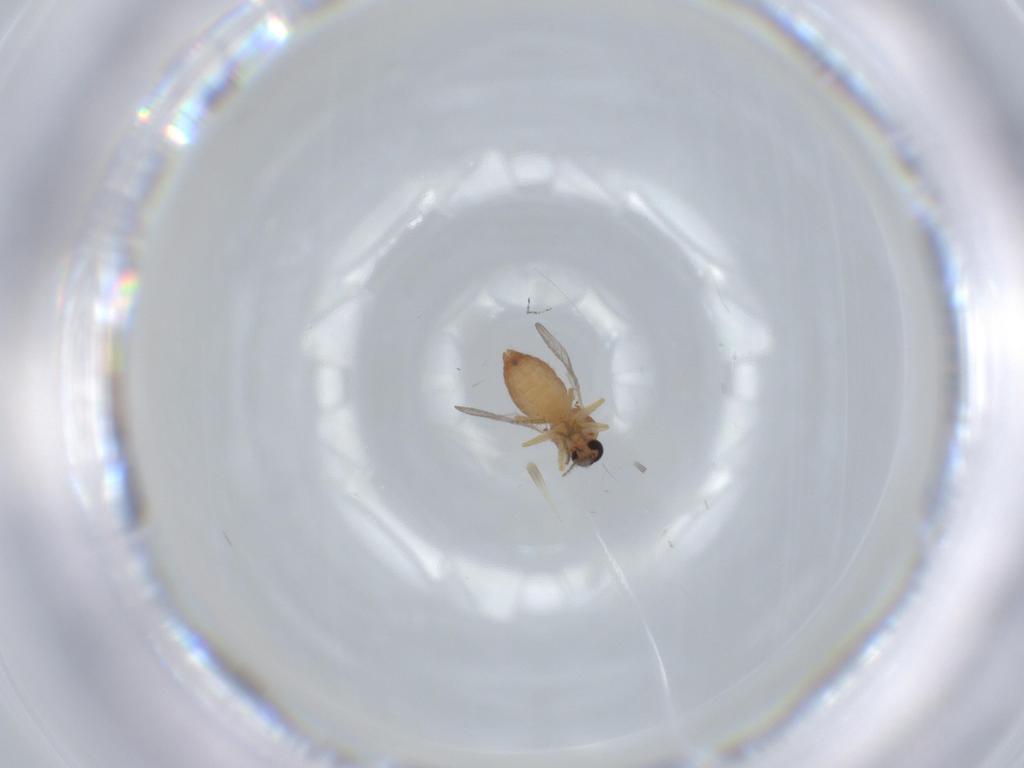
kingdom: Animalia
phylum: Arthropoda
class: Insecta
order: Diptera
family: Ceratopogonidae
